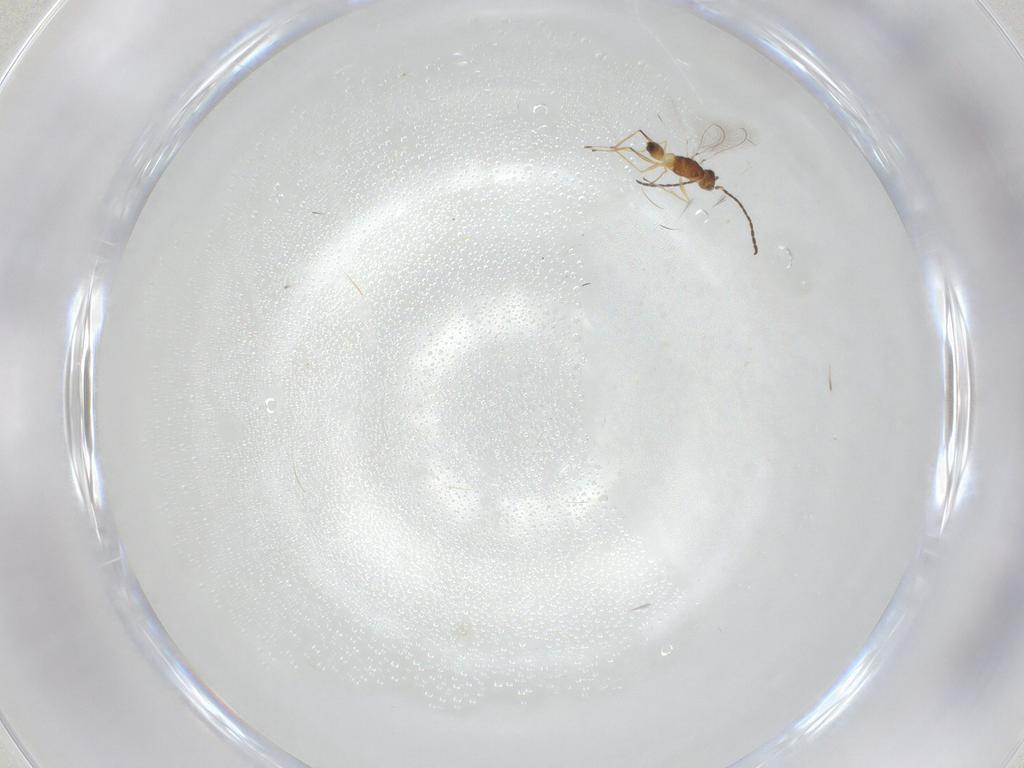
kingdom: Animalia
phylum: Arthropoda
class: Insecta
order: Hymenoptera
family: Mymaridae
